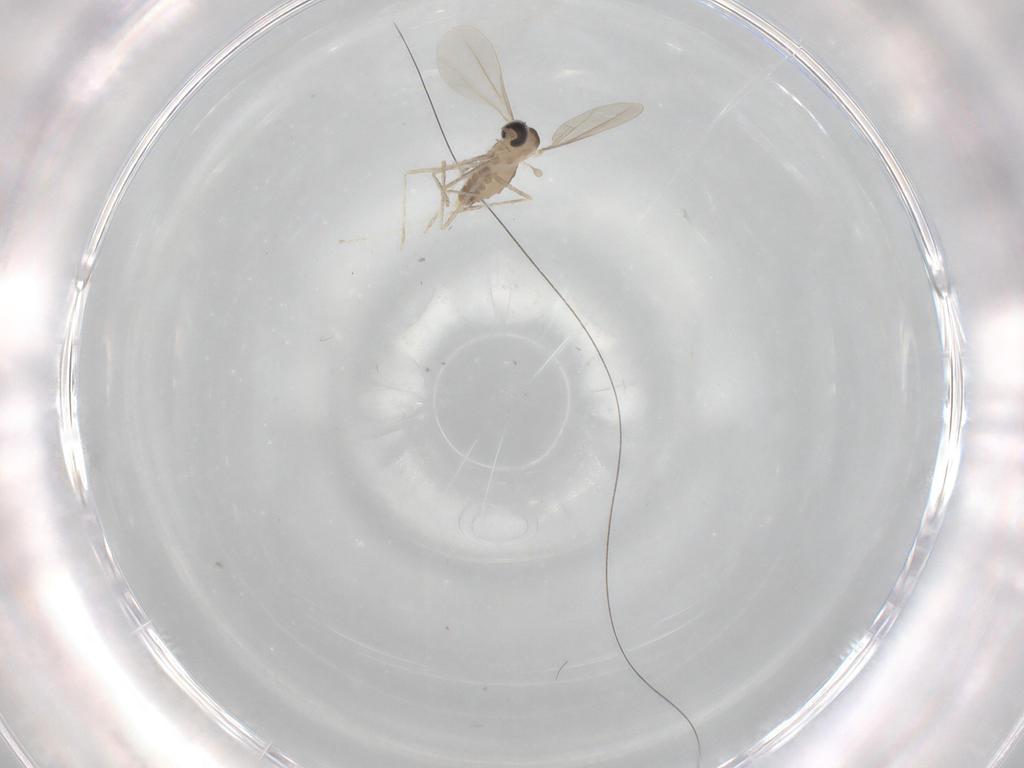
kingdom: Animalia
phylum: Arthropoda
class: Insecta
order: Diptera
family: Cecidomyiidae
